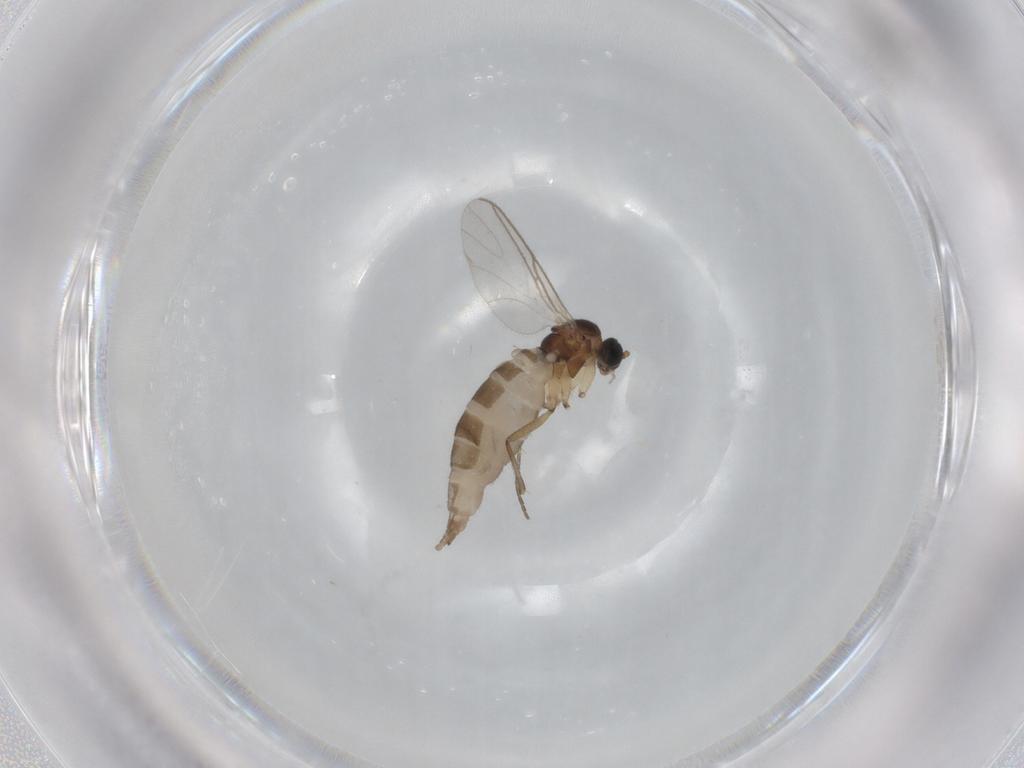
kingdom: Animalia
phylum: Arthropoda
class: Insecta
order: Diptera
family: Sciaridae
